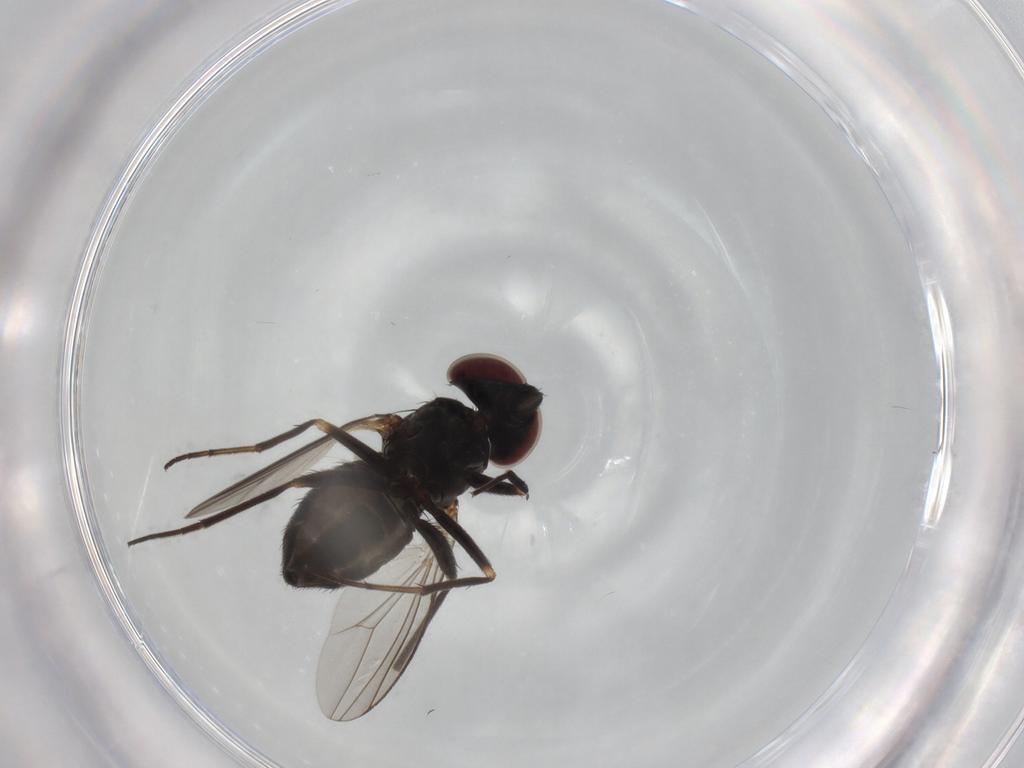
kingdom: Animalia
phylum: Arthropoda
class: Insecta
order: Diptera
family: Sciaridae
